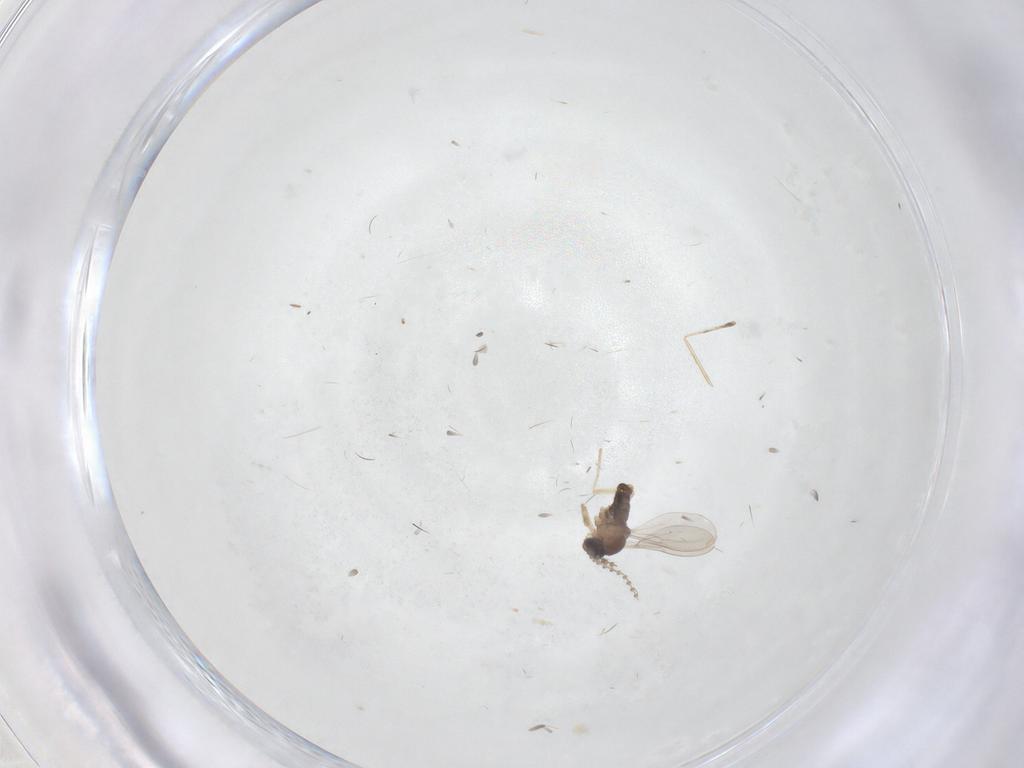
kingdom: Animalia
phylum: Arthropoda
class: Insecta
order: Diptera
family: Cecidomyiidae
